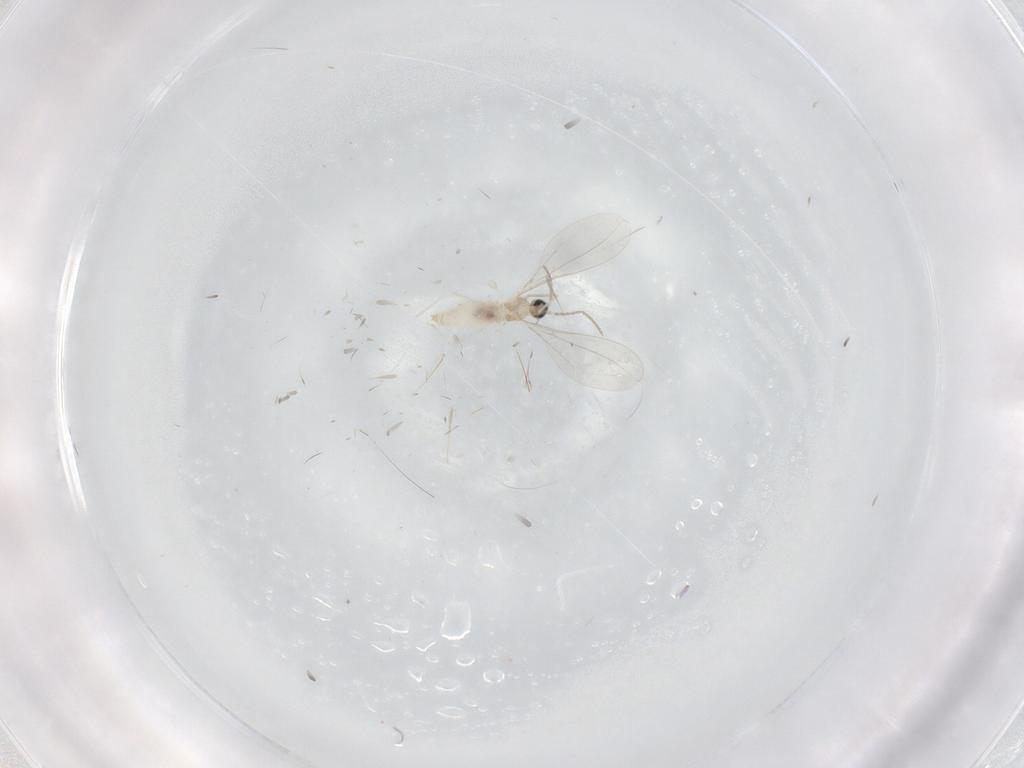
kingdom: Animalia
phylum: Arthropoda
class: Insecta
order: Diptera
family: Cecidomyiidae
